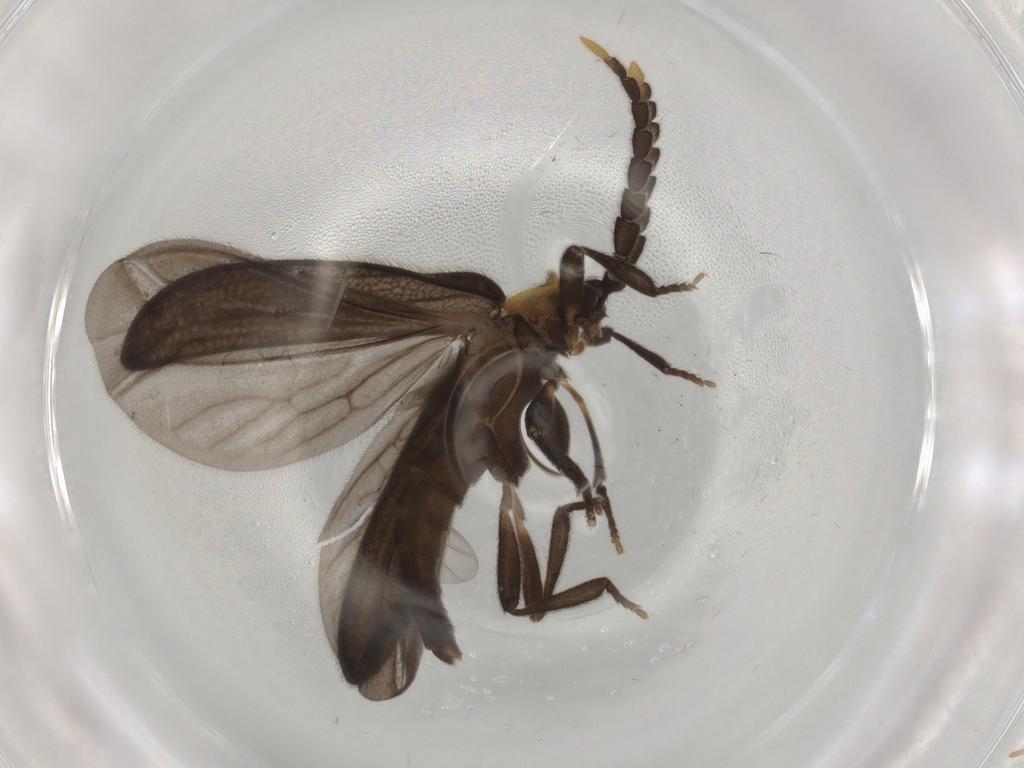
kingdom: Animalia
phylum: Arthropoda
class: Insecta
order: Coleoptera
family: Lycidae
